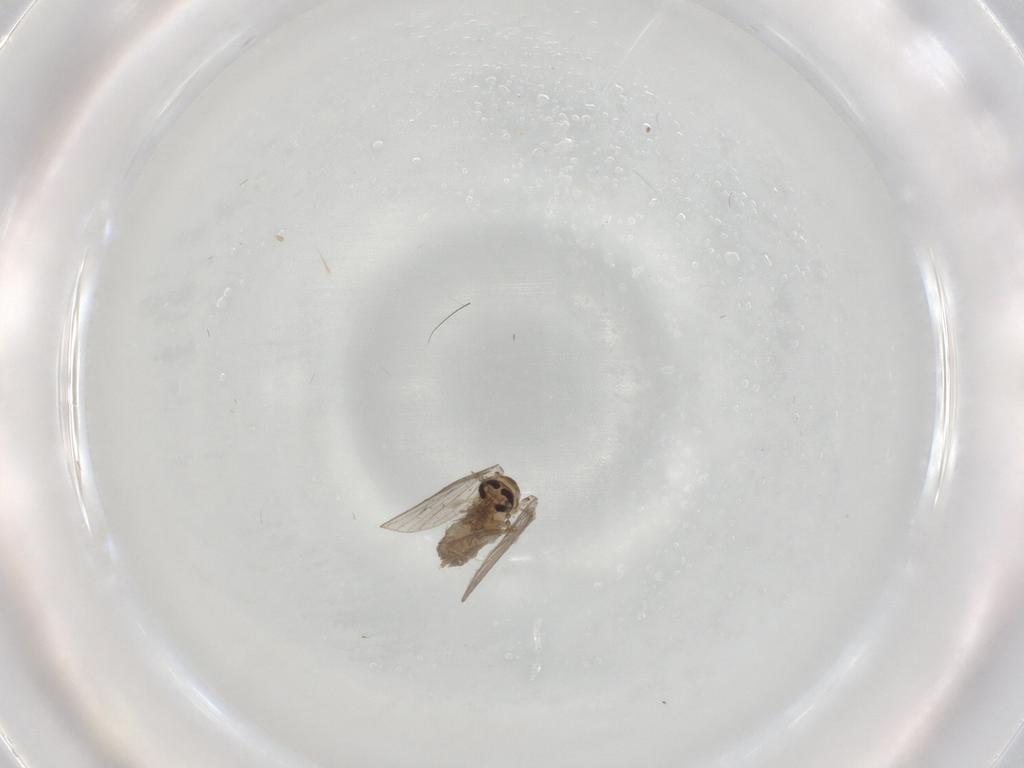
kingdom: Animalia
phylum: Arthropoda
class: Insecta
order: Diptera
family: Psychodidae
